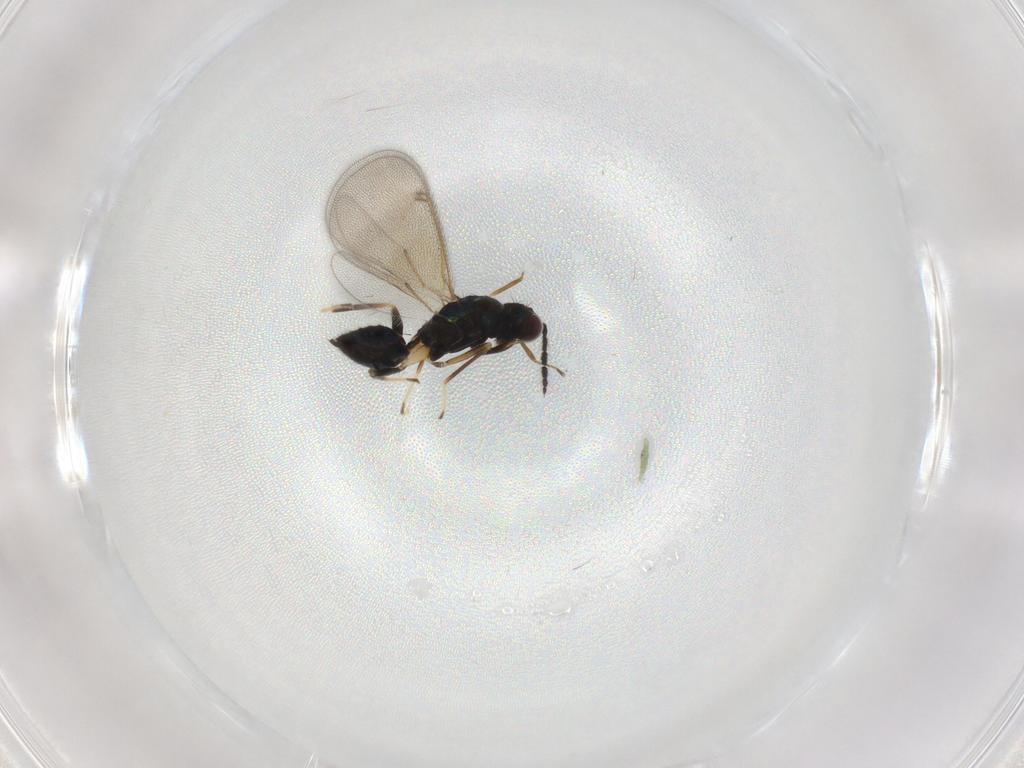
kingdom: Animalia
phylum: Arthropoda
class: Insecta
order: Hymenoptera
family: Eulophidae
